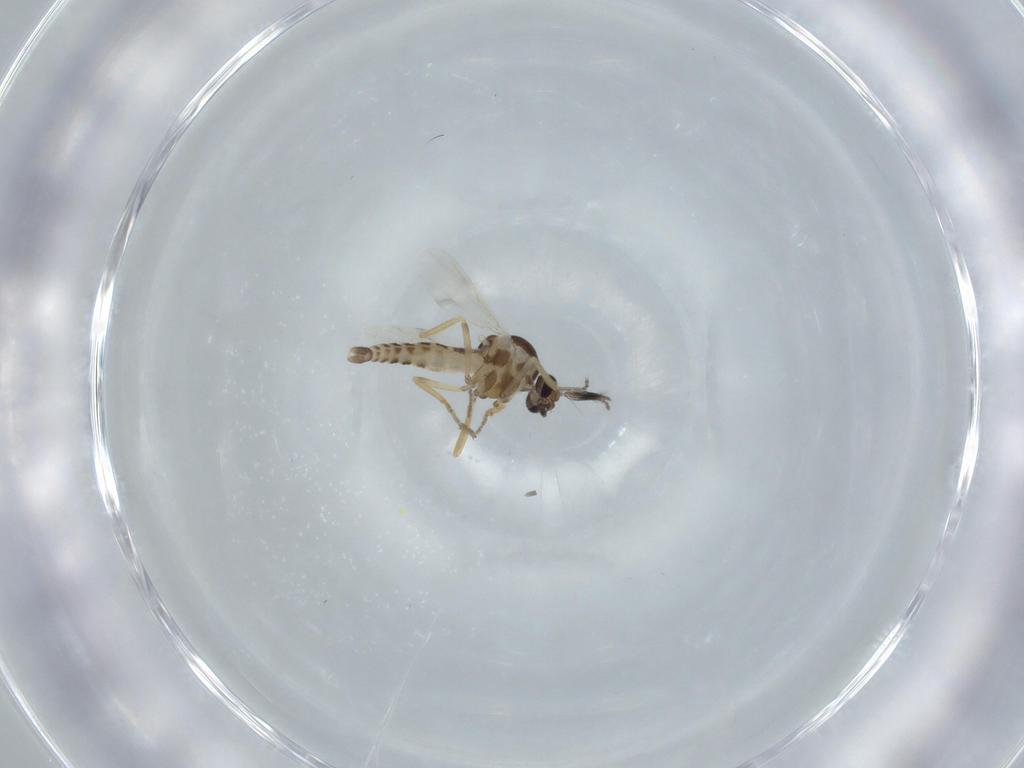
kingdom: Animalia
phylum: Arthropoda
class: Insecta
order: Diptera
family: Ceratopogonidae
